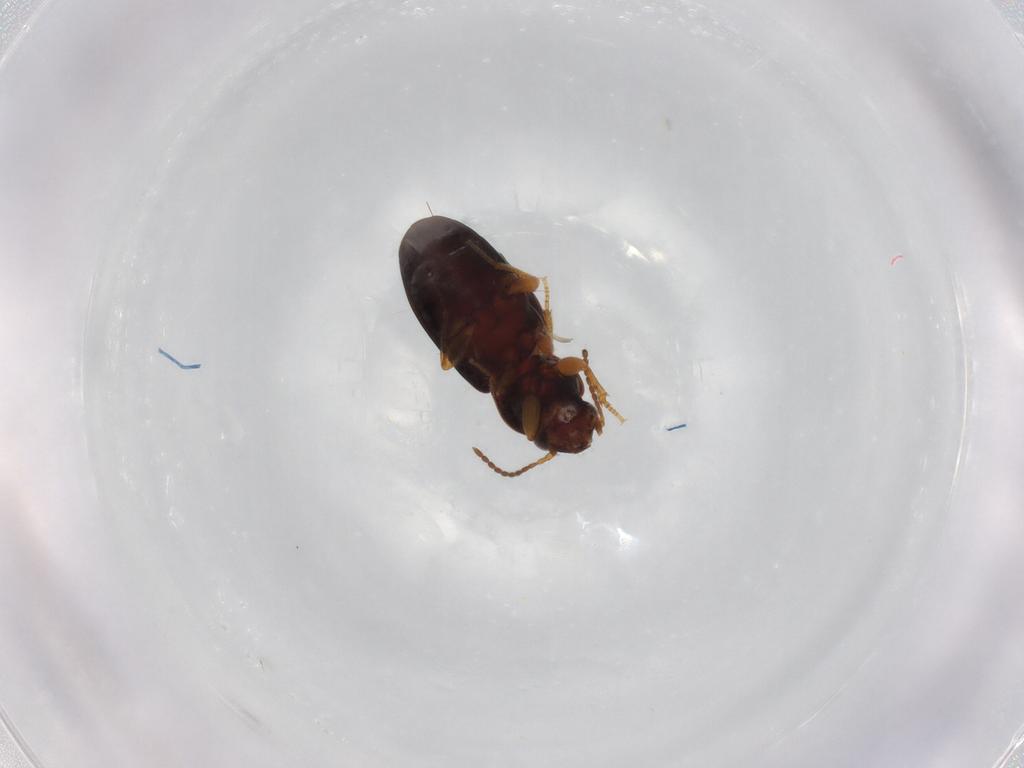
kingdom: Animalia
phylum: Arthropoda
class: Insecta
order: Coleoptera
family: Carabidae
